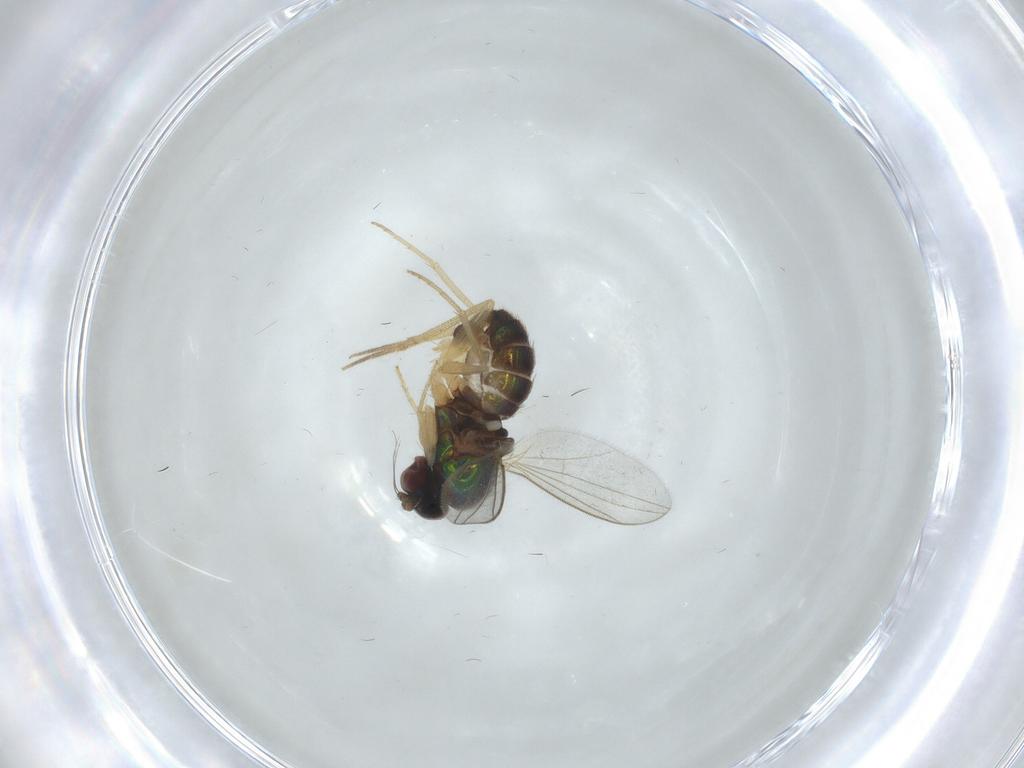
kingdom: Animalia
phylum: Arthropoda
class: Insecta
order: Diptera
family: Dolichopodidae
